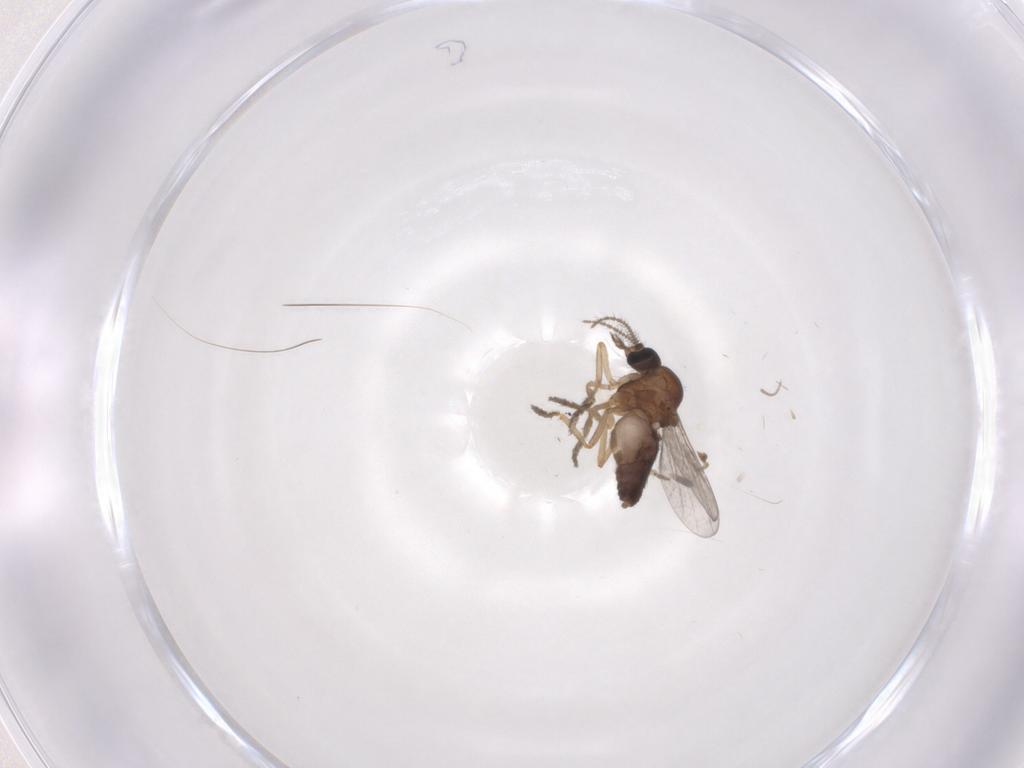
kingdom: Animalia
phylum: Arthropoda
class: Insecta
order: Diptera
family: Ceratopogonidae
